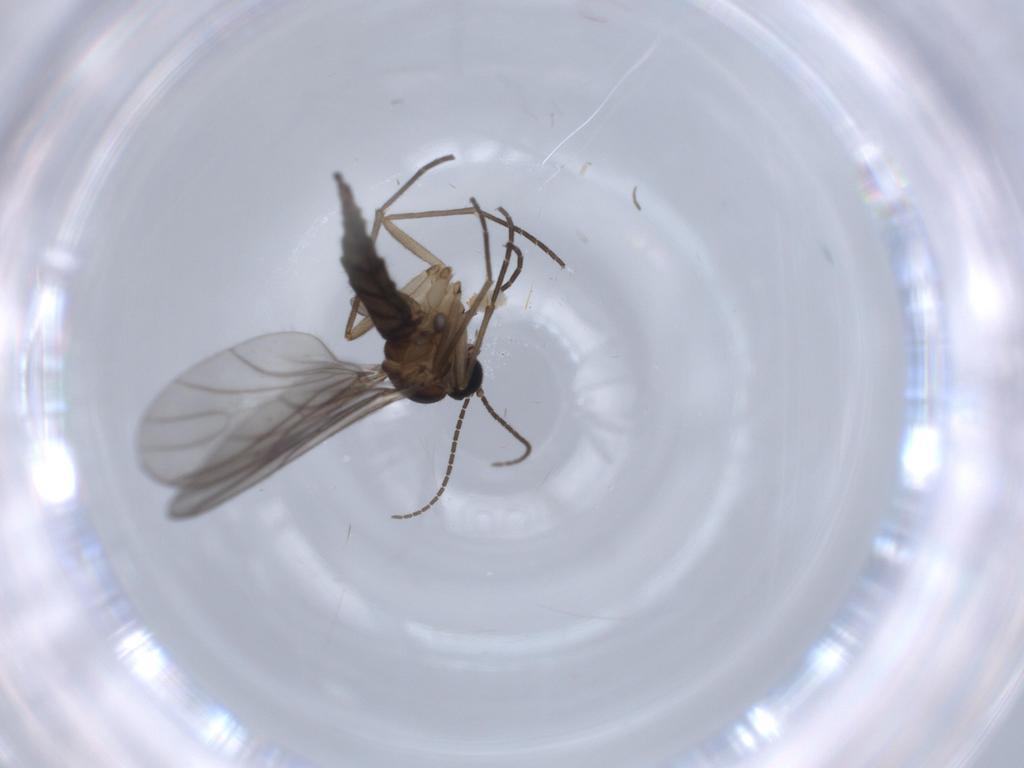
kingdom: Animalia
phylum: Arthropoda
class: Insecta
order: Diptera
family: Sciaridae
